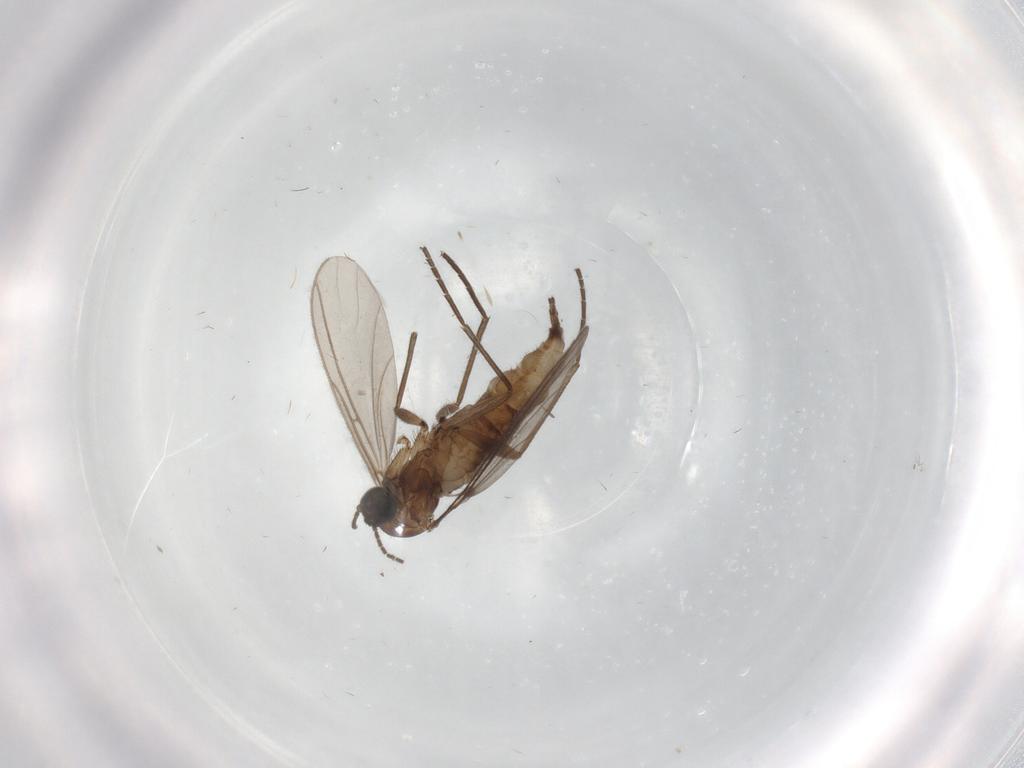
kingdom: Animalia
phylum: Arthropoda
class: Insecta
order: Diptera
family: Sciaridae
